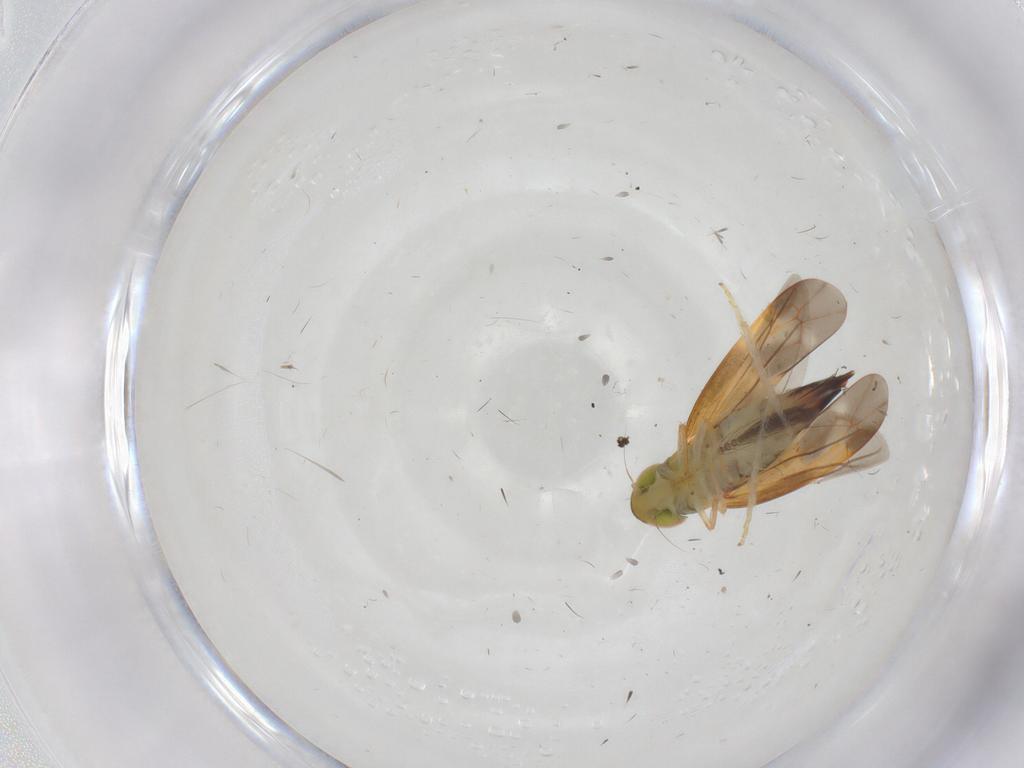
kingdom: Animalia
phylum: Arthropoda
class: Insecta
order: Hemiptera
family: Cicadellidae
